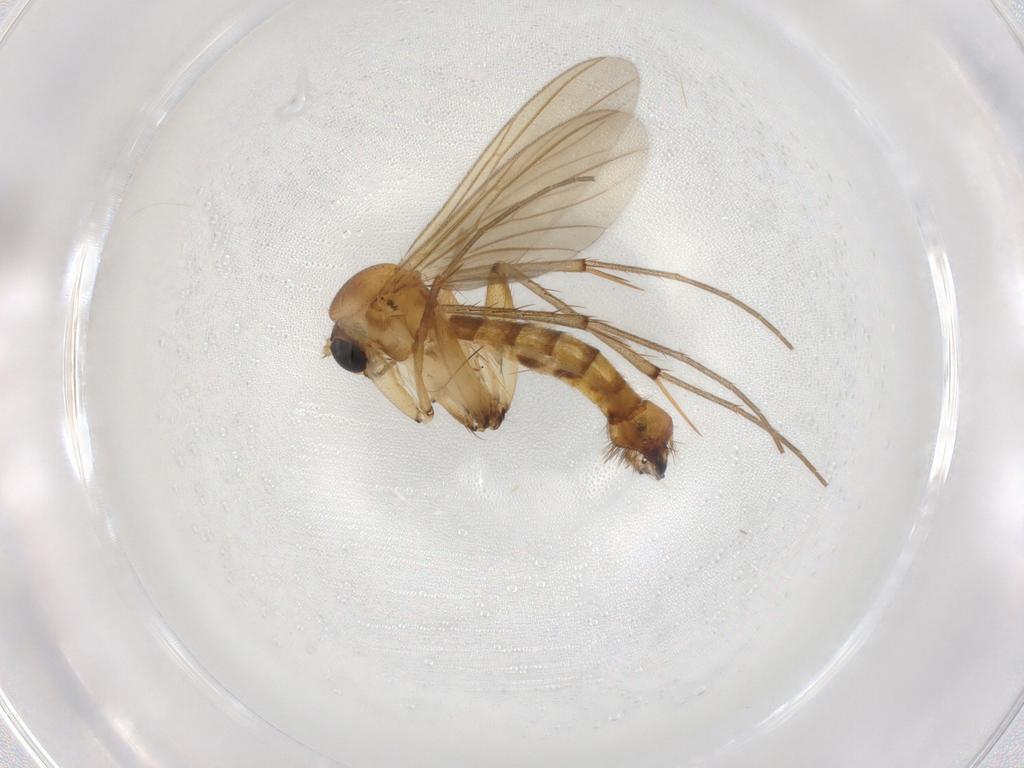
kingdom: Animalia
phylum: Arthropoda
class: Insecta
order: Diptera
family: Mycetophilidae
